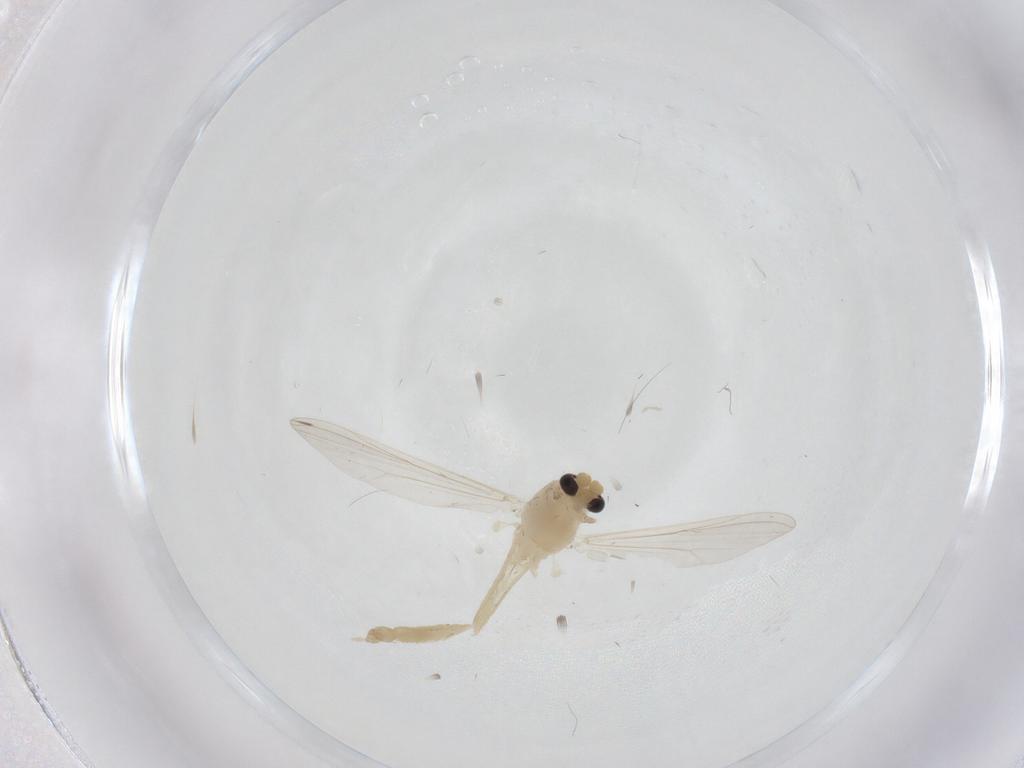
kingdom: Animalia
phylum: Arthropoda
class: Insecta
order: Diptera
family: Chironomidae
